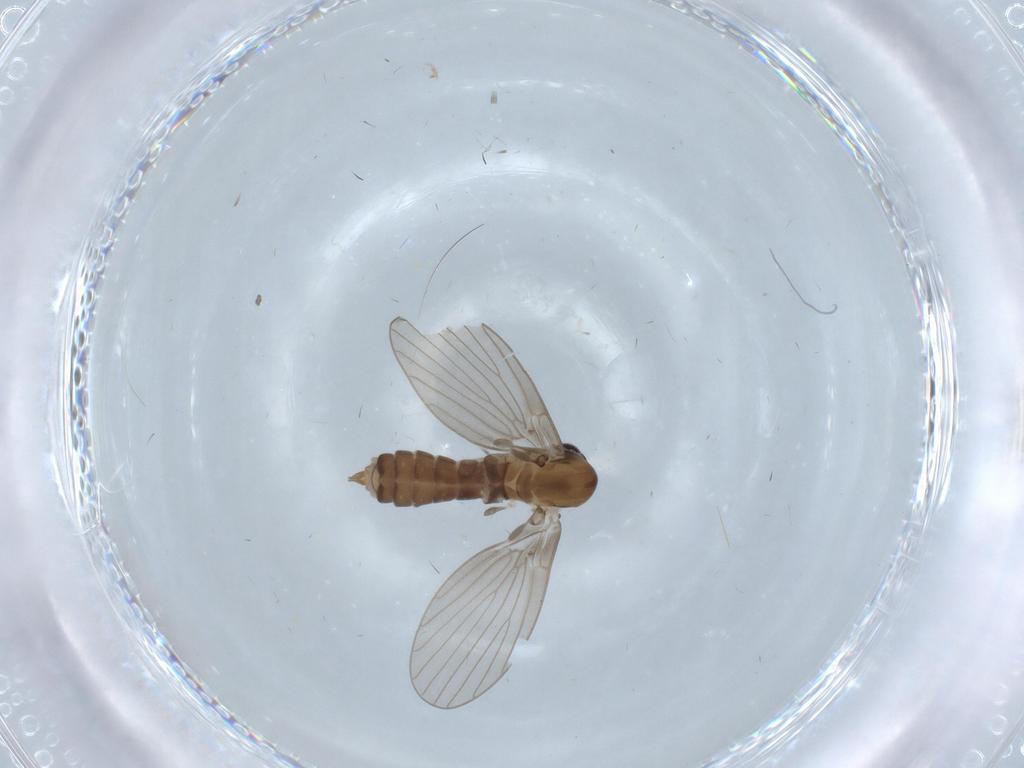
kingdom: Animalia
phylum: Arthropoda
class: Insecta
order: Diptera
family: Psychodidae
